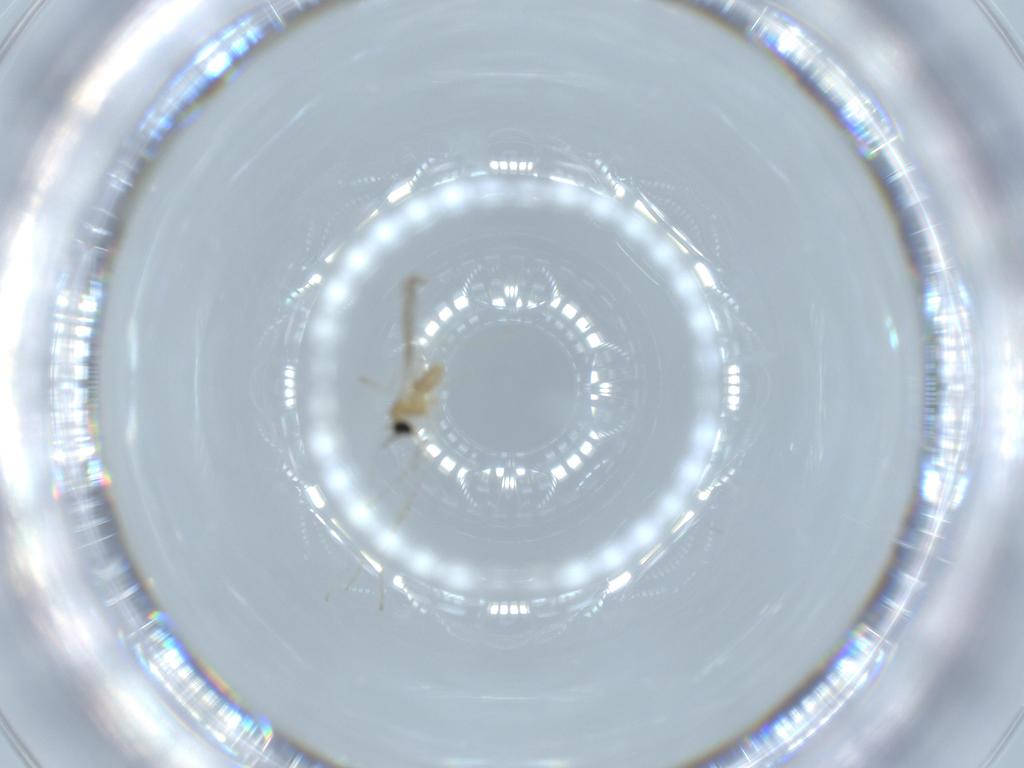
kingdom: Animalia
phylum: Arthropoda
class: Insecta
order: Diptera
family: Cecidomyiidae
